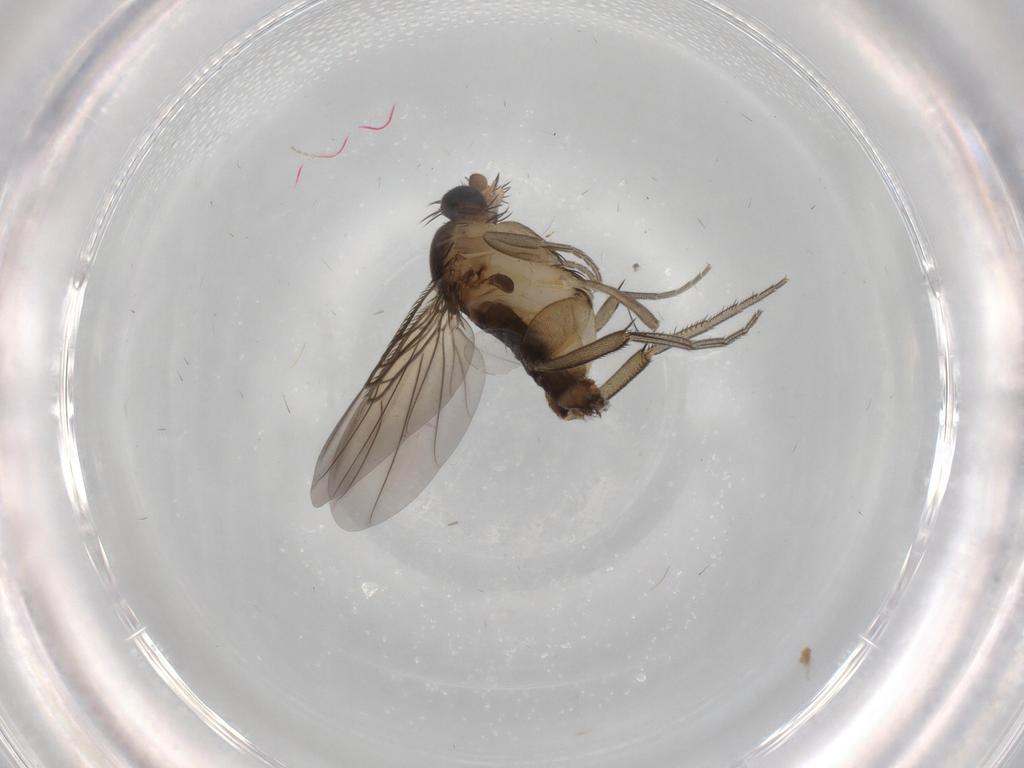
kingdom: Animalia
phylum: Arthropoda
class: Insecta
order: Diptera
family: Phoridae
